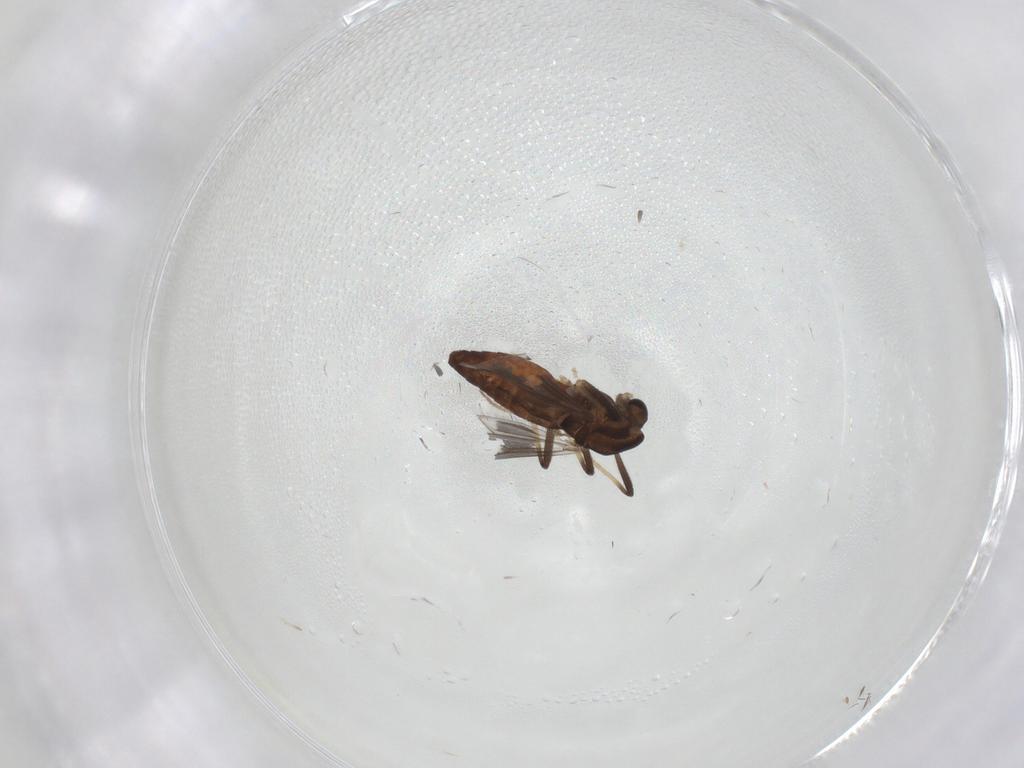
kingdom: Animalia
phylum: Arthropoda
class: Insecta
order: Diptera
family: Chironomidae
